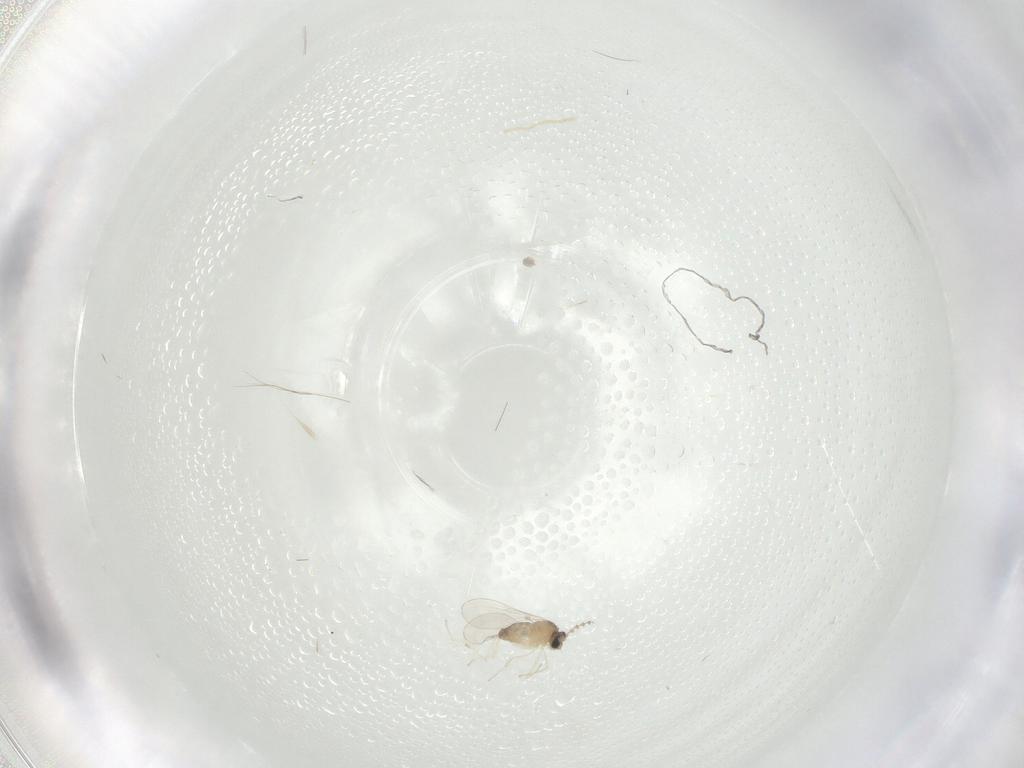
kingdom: Animalia
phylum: Arthropoda
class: Insecta
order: Diptera
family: Cecidomyiidae
